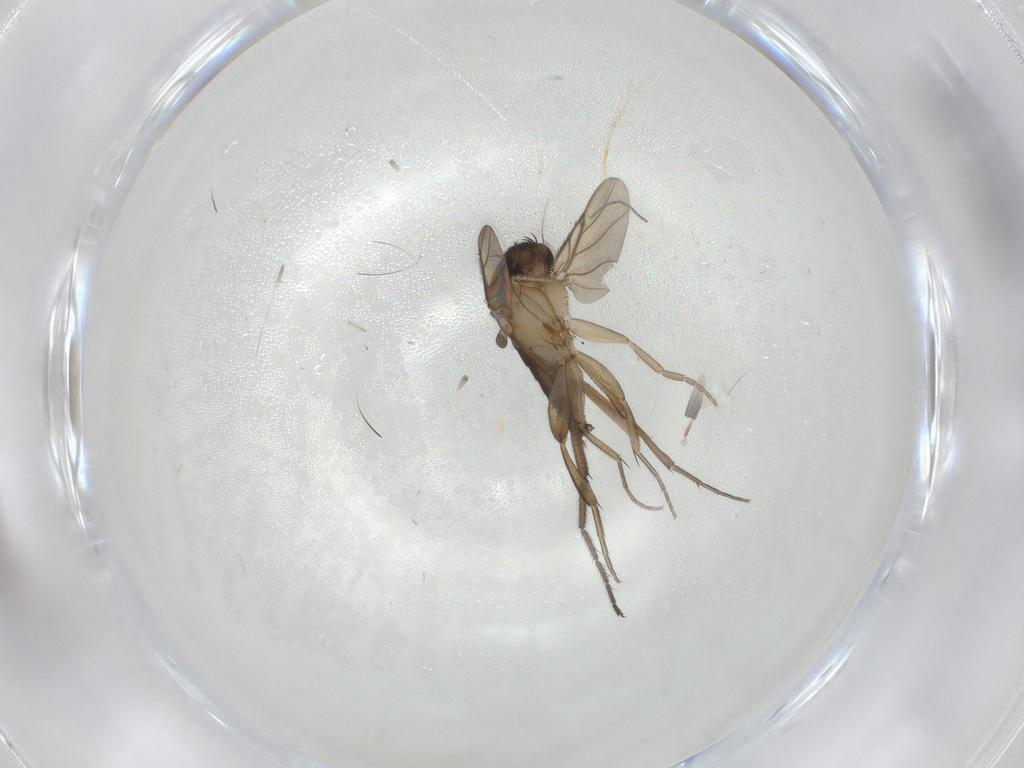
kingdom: Animalia
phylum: Arthropoda
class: Insecta
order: Diptera
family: Phoridae
